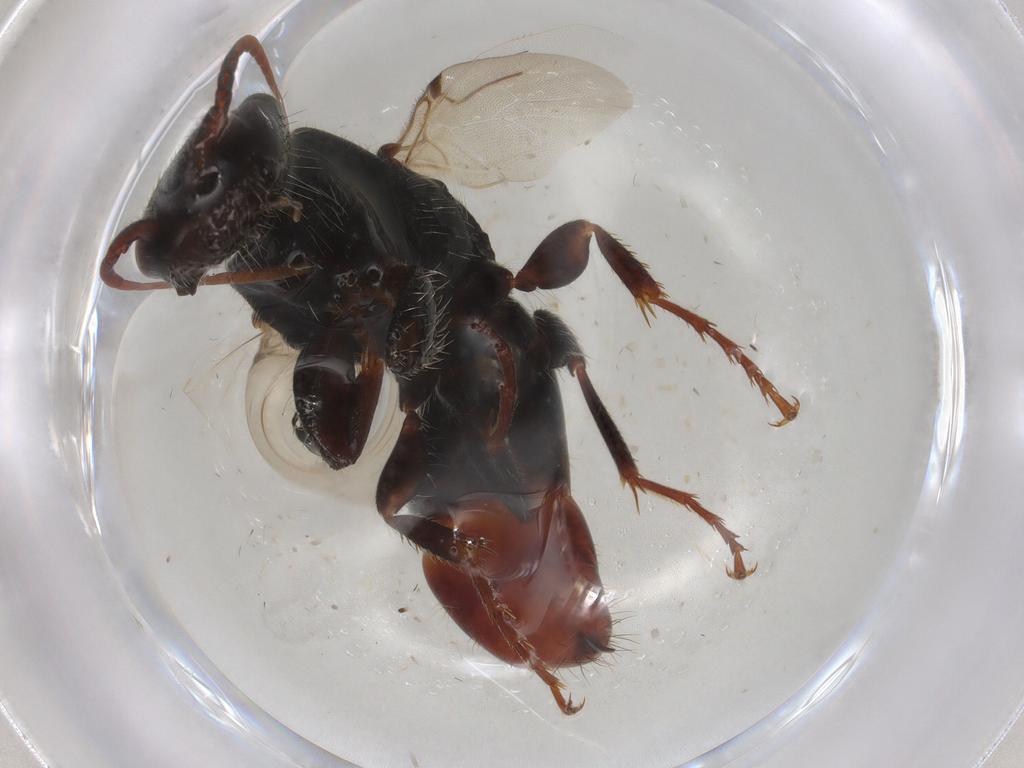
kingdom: Animalia
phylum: Arthropoda
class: Insecta
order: Hymenoptera
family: Bethylidae
